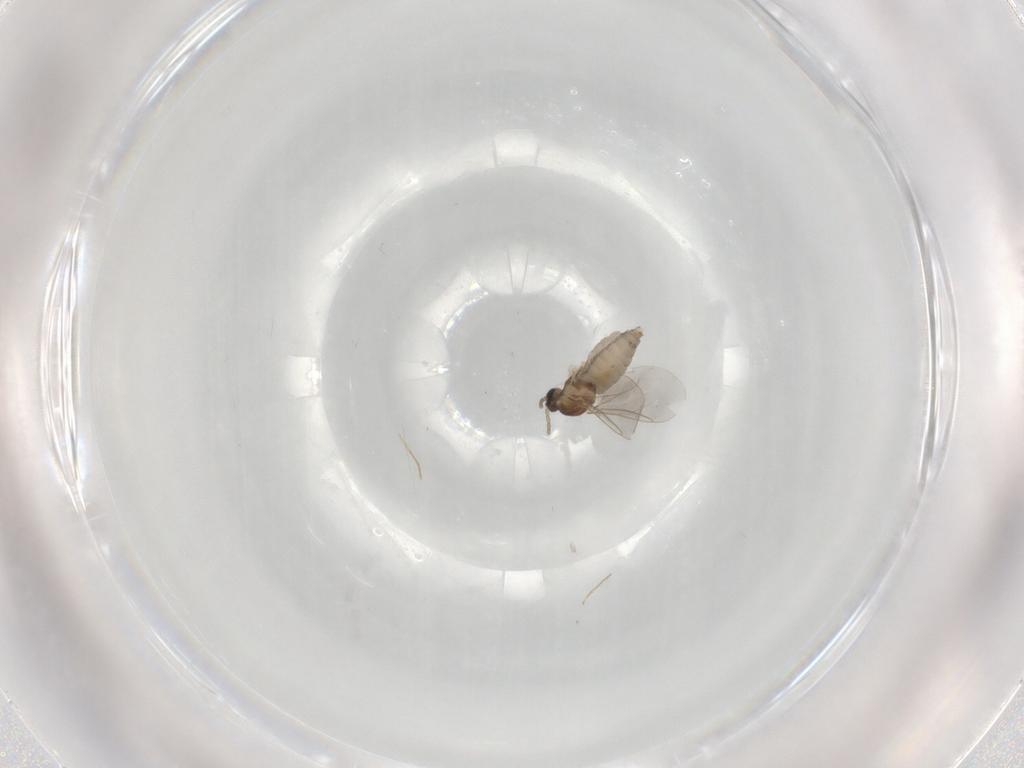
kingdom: Animalia
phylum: Arthropoda
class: Insecta
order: Diptera
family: Cecidomyiidae
